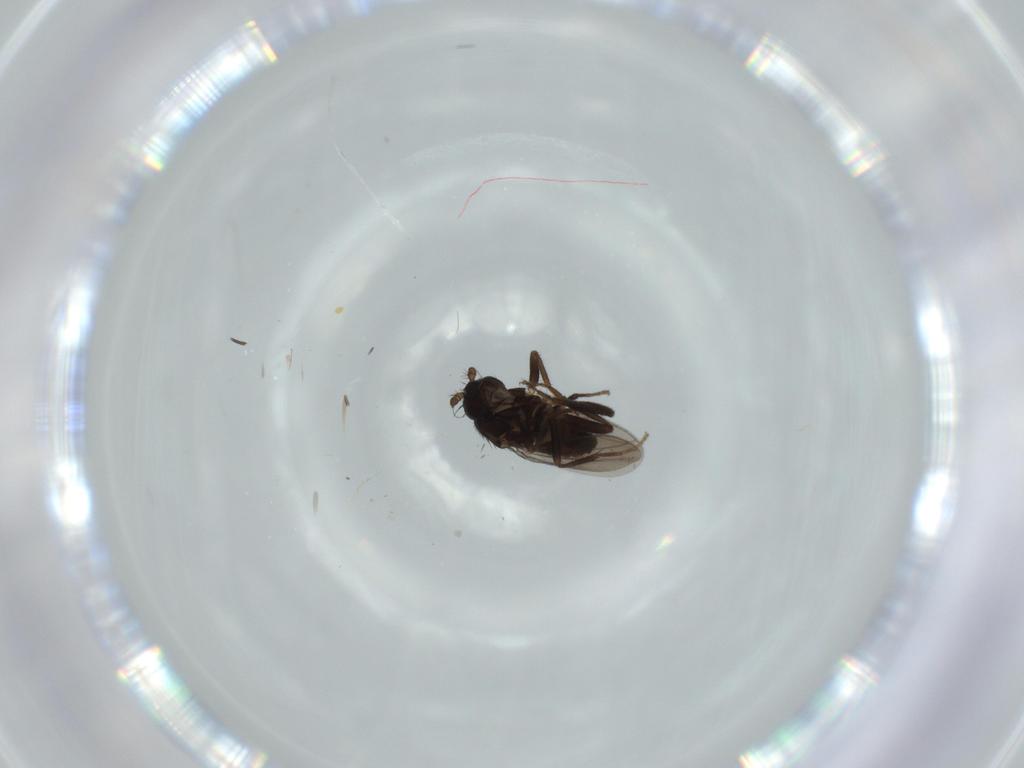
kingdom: Animalia
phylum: Arthropoda
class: Insecta
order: Diptera
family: Sphaeroceridae
